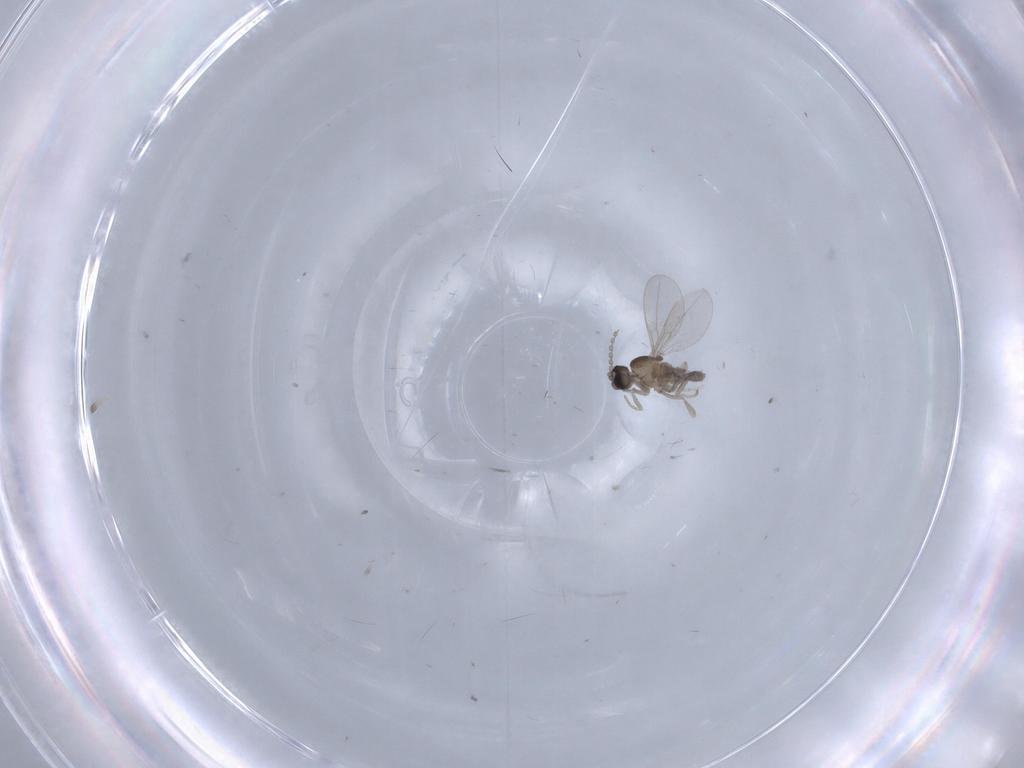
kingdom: Animalia
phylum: Arthropoda
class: Insecta
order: Diptera
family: Cecidomyiidae
